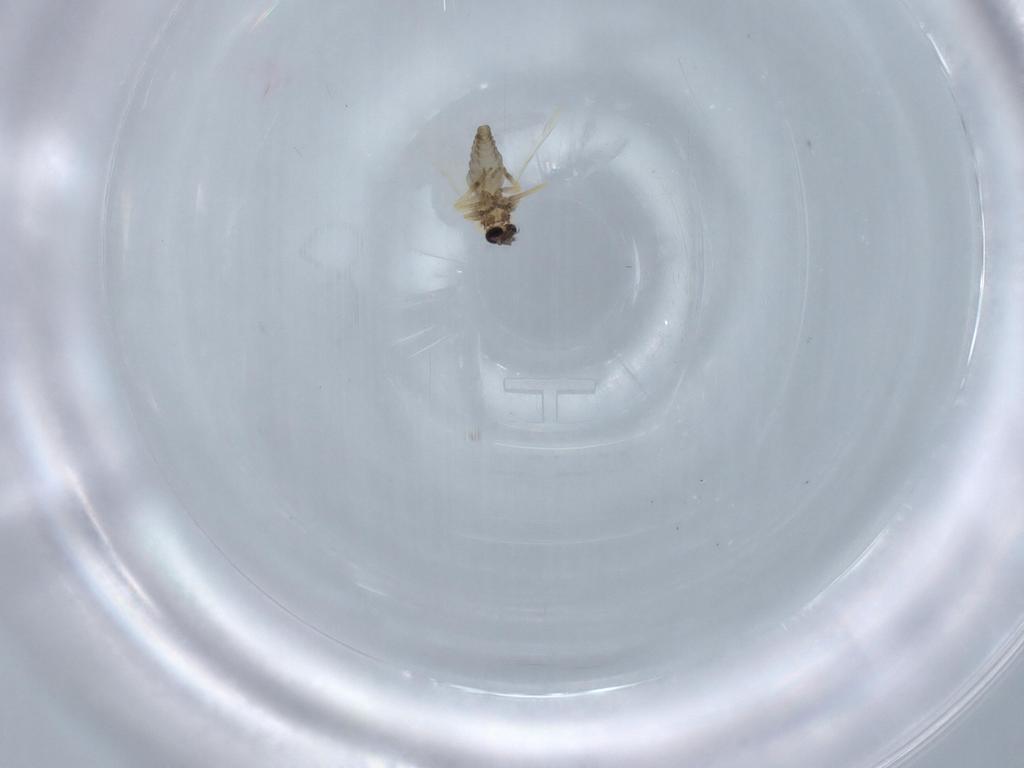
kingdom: Animalia
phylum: Arthropoda
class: Insecta
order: Diptera
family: Ceratopogonidae
